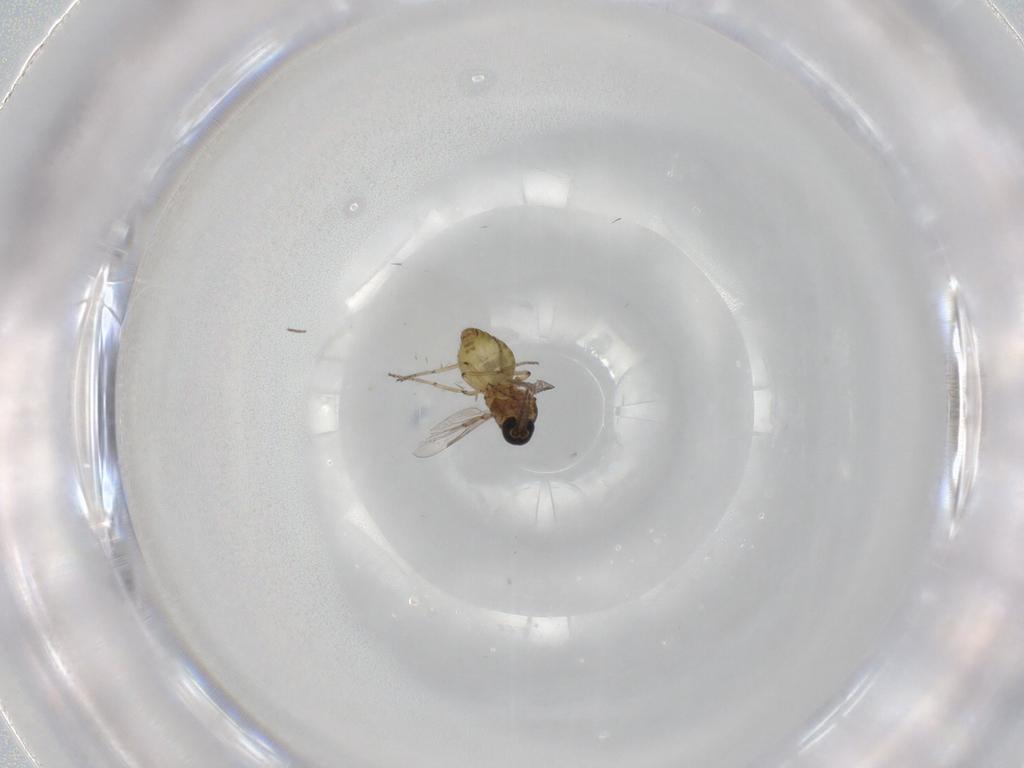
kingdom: Animalia
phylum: Arthropoda
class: Insecta
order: Diptera
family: Ceratopogonidae
